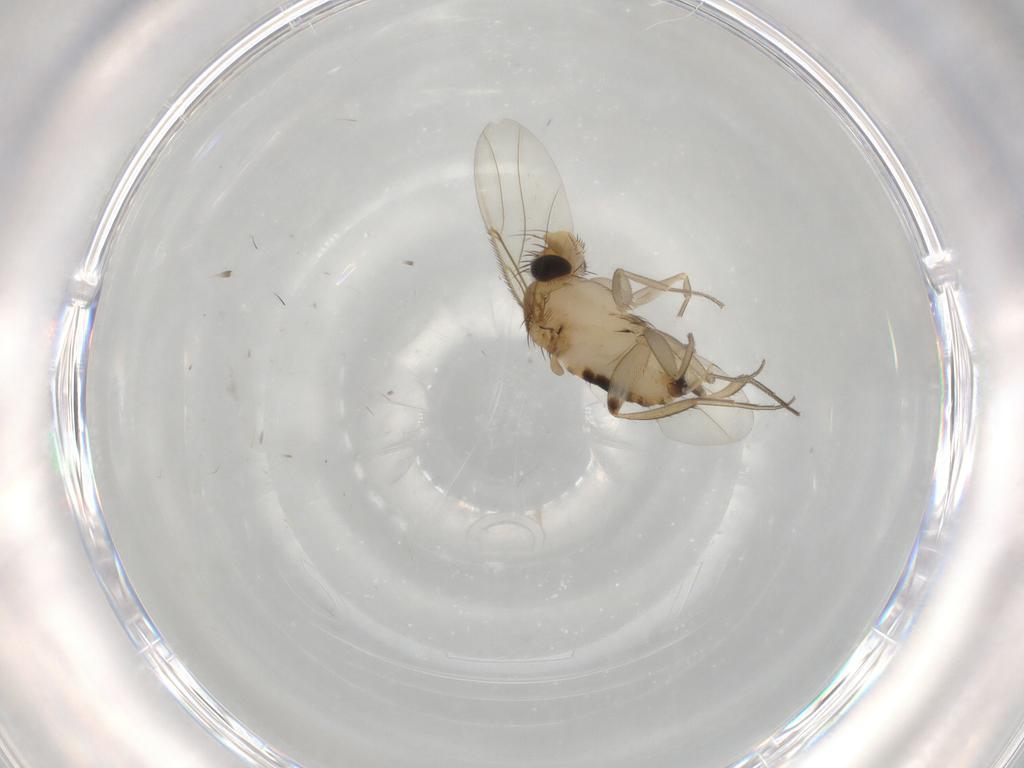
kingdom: Animalia
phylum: Arthropoda
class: Insecta
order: Diptera
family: Phoridae
